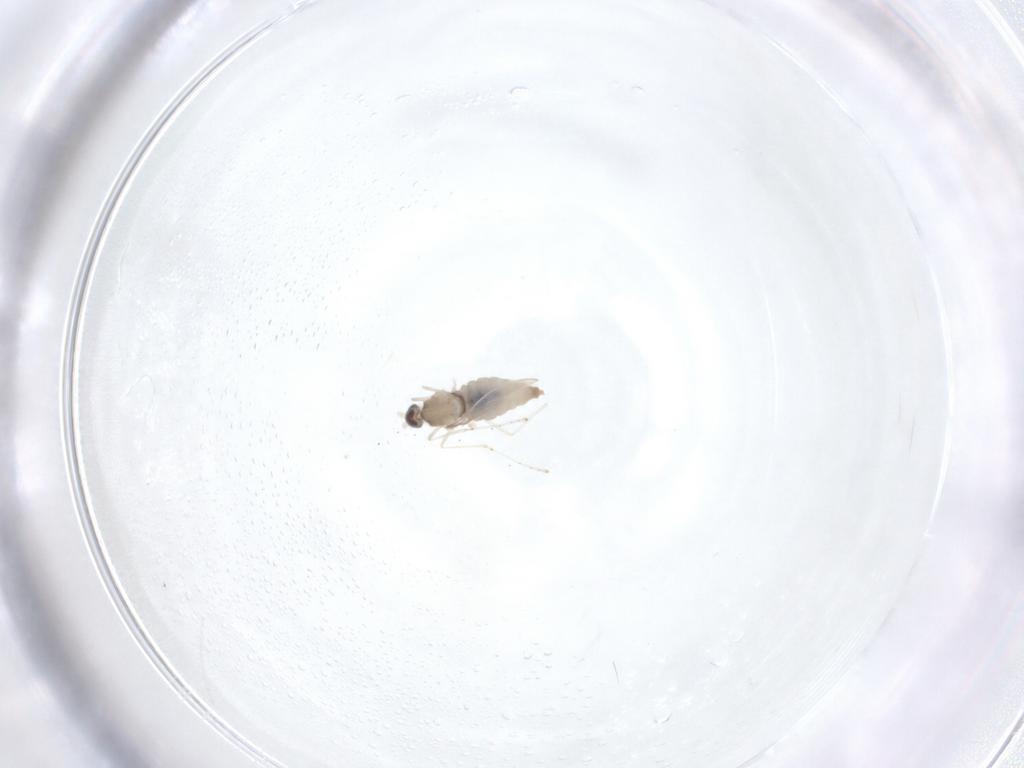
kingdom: Animalia
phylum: Arthropoda
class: Insecta
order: Diptera
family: Cecidomyiidae
